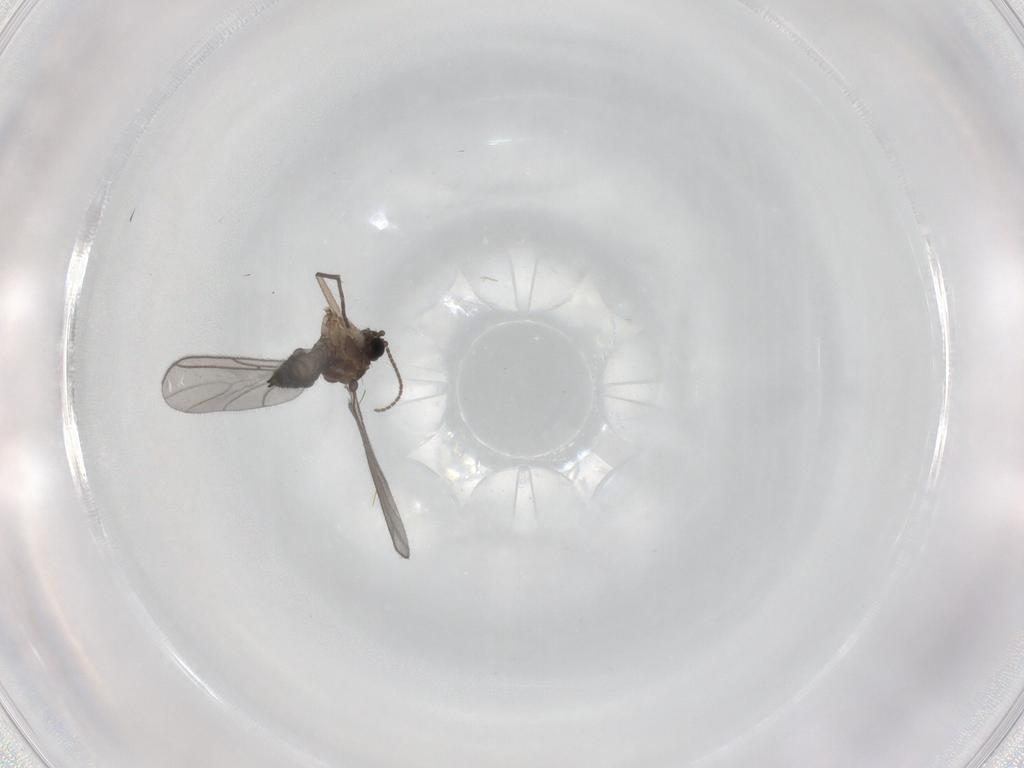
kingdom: Animalia
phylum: Arthropoda
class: Insecta
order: Diptera
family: Sciaridae
